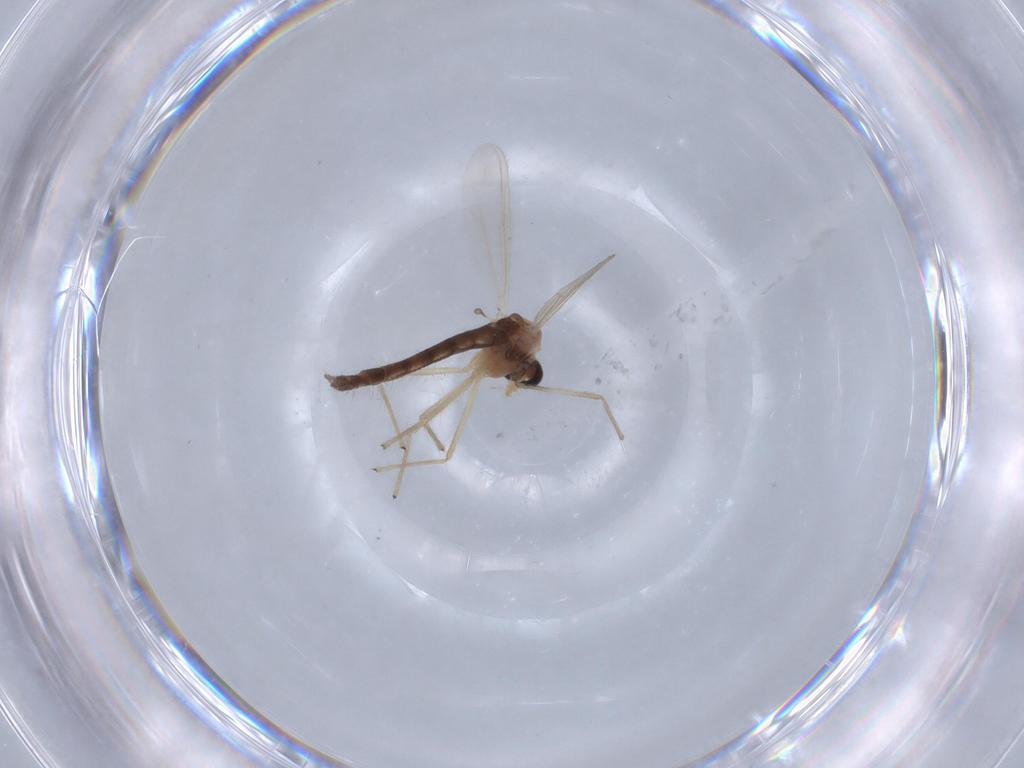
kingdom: Animalia
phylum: Arthropoda
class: Insecta
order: Diptera
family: Chironomidae
